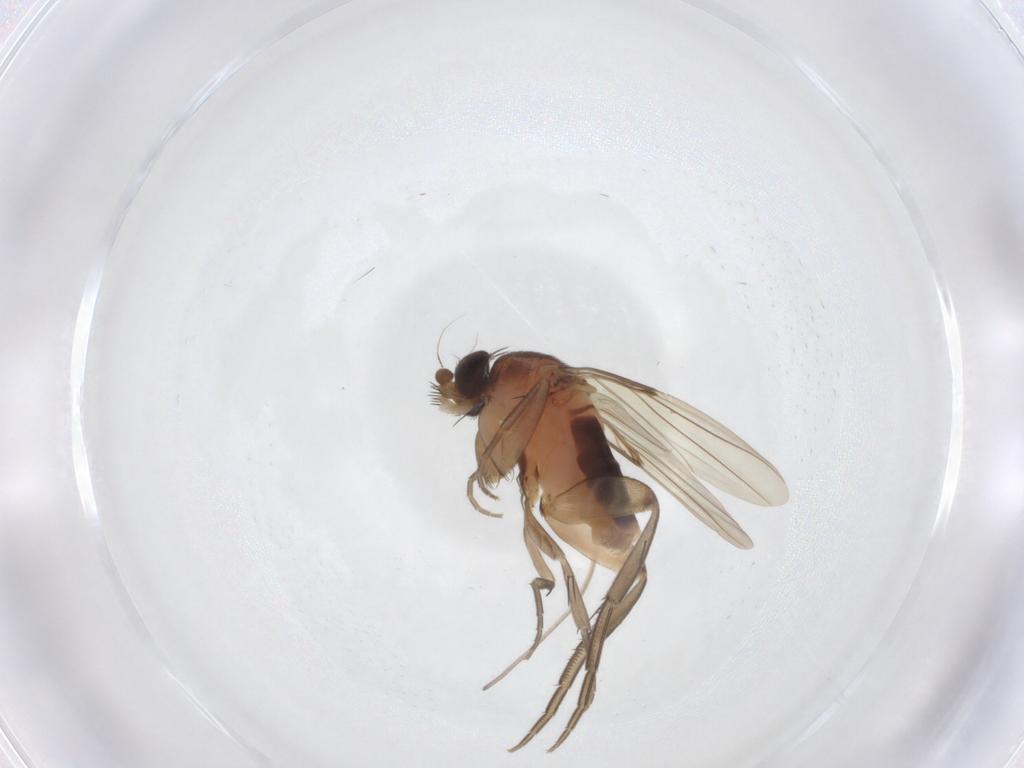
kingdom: Animalia
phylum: Arthropoda
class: Insecta
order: Diptera
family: Phoridae
